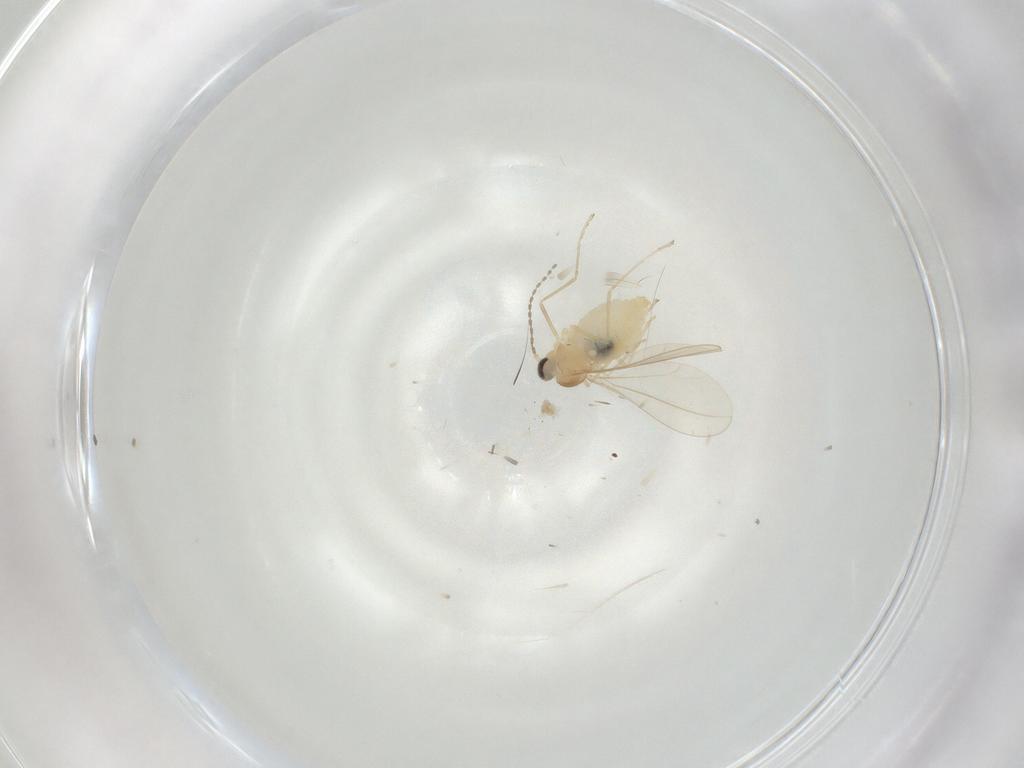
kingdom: Animalia
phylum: Arthropoda
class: Insecta
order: Diptera
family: Cecidomyiidae
